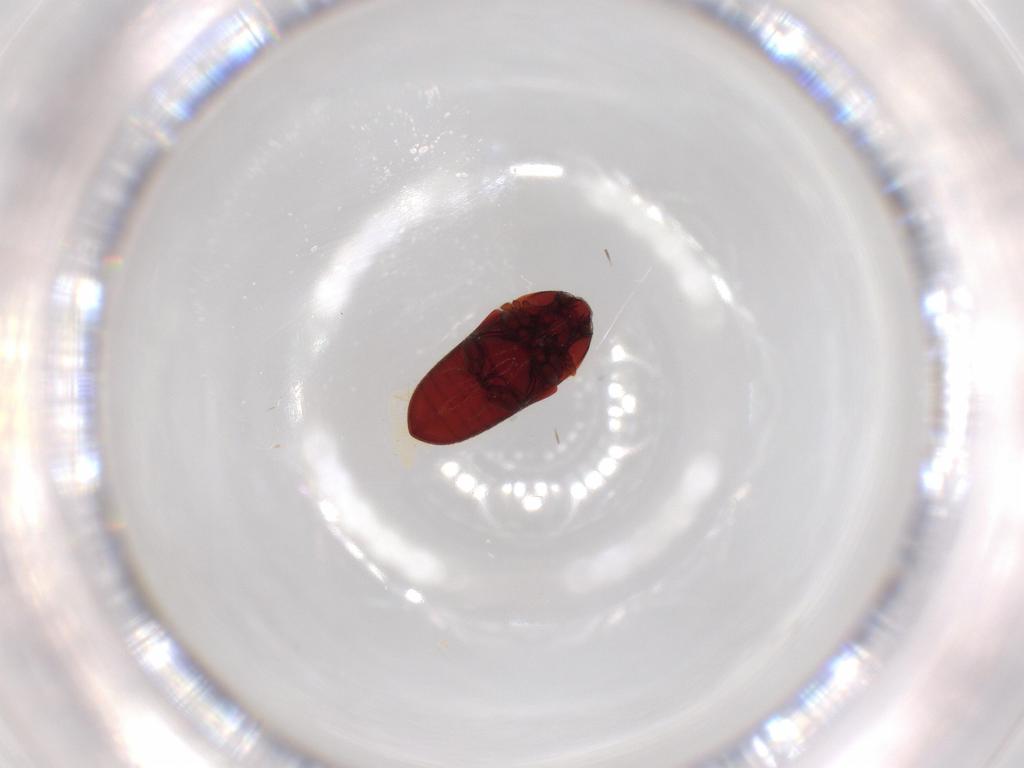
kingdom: Animalia
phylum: Arthropoda
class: Insecta
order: Coleoptera
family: Throscidae
